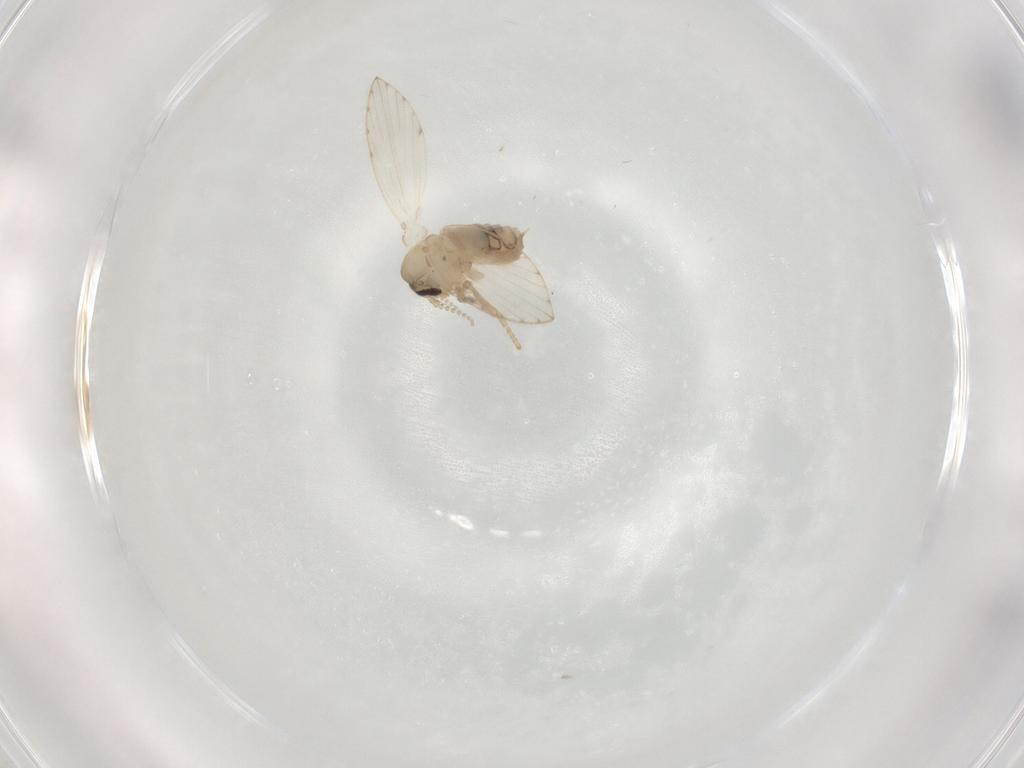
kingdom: Animalia
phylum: Arthropoda
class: Insecta
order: Diptera
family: Psychodidae
